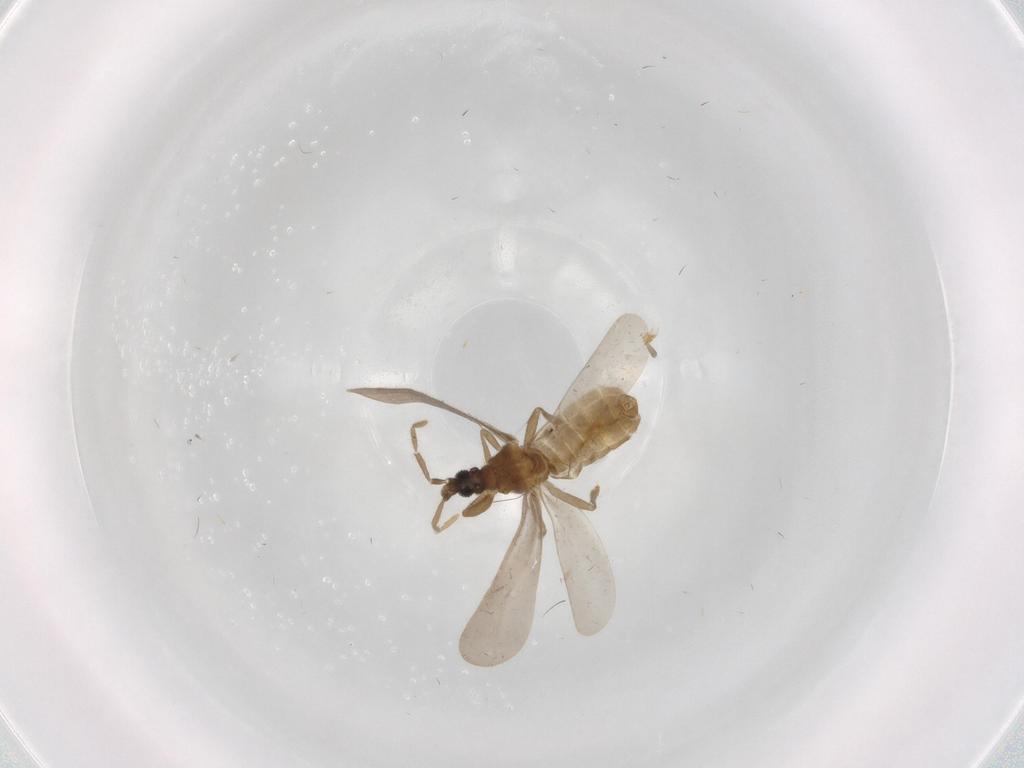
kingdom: Animalia
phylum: Arthropoda
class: Insecta
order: Hemiptera
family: Enicocephalidae
